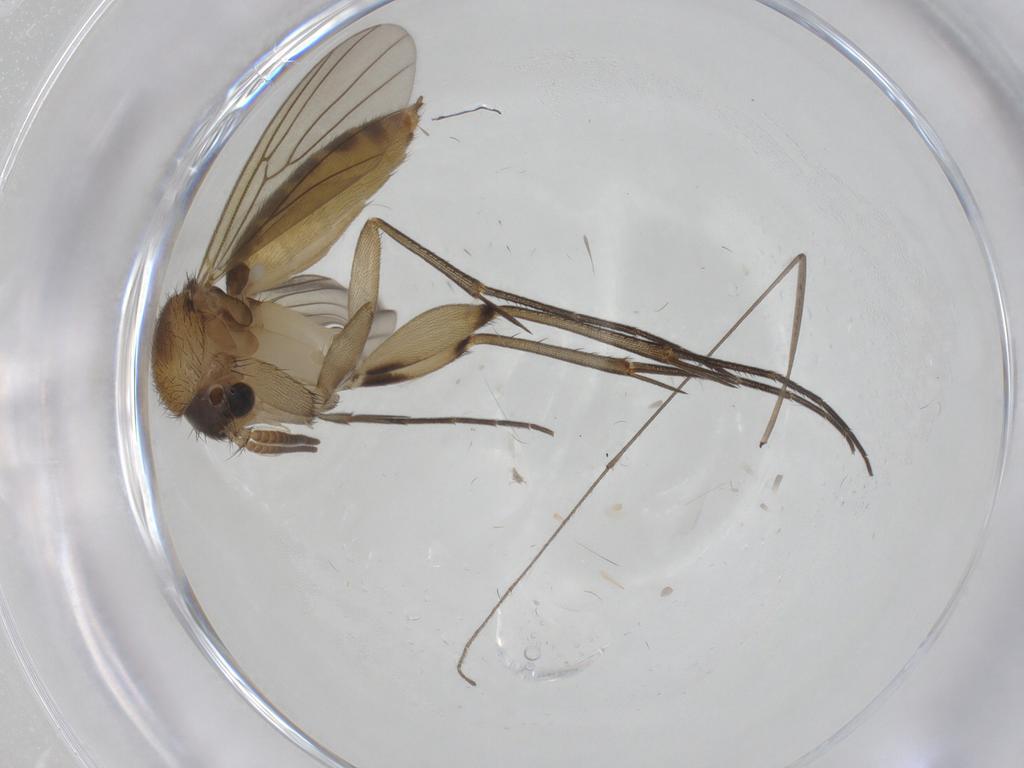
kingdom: Animalia
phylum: Arthropoda
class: Insecta
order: Diptera
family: Mycetophilidae
